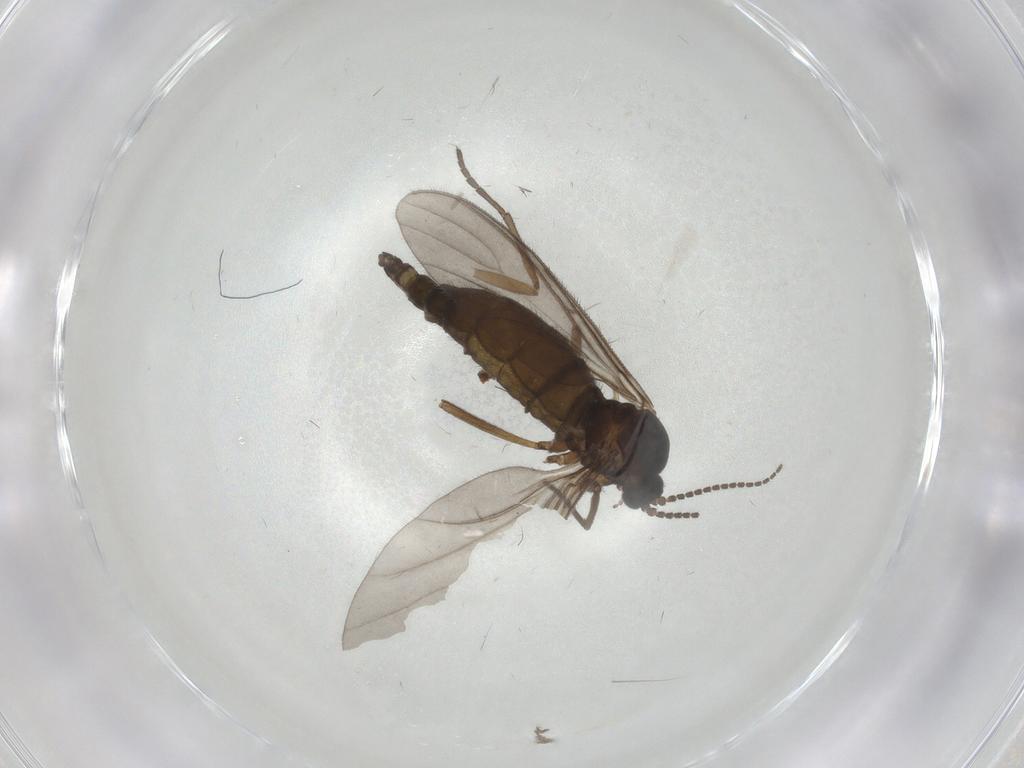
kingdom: Animalia
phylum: Arthropoda
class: Insecta
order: Diptera
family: Sciaridae
